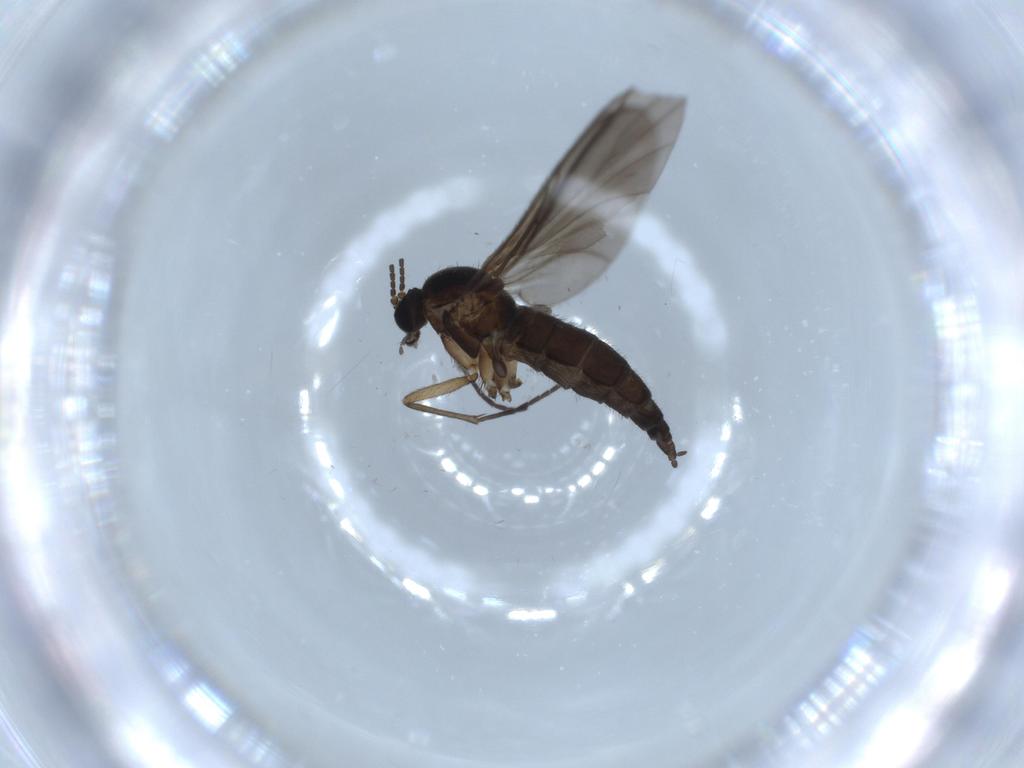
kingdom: Animalia
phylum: Arthropoda
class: Insecta
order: Diptera
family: Sciaridae
